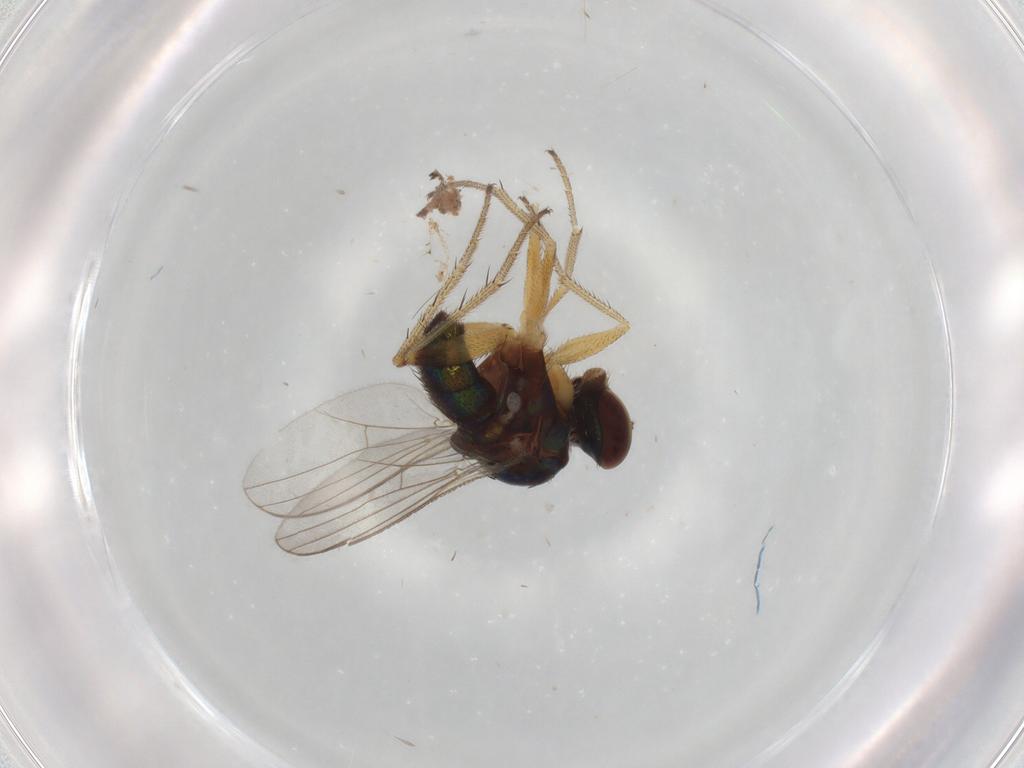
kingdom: Animalia
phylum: Arthropoda
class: Insecta
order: Diptera
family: Dolichopodidae
